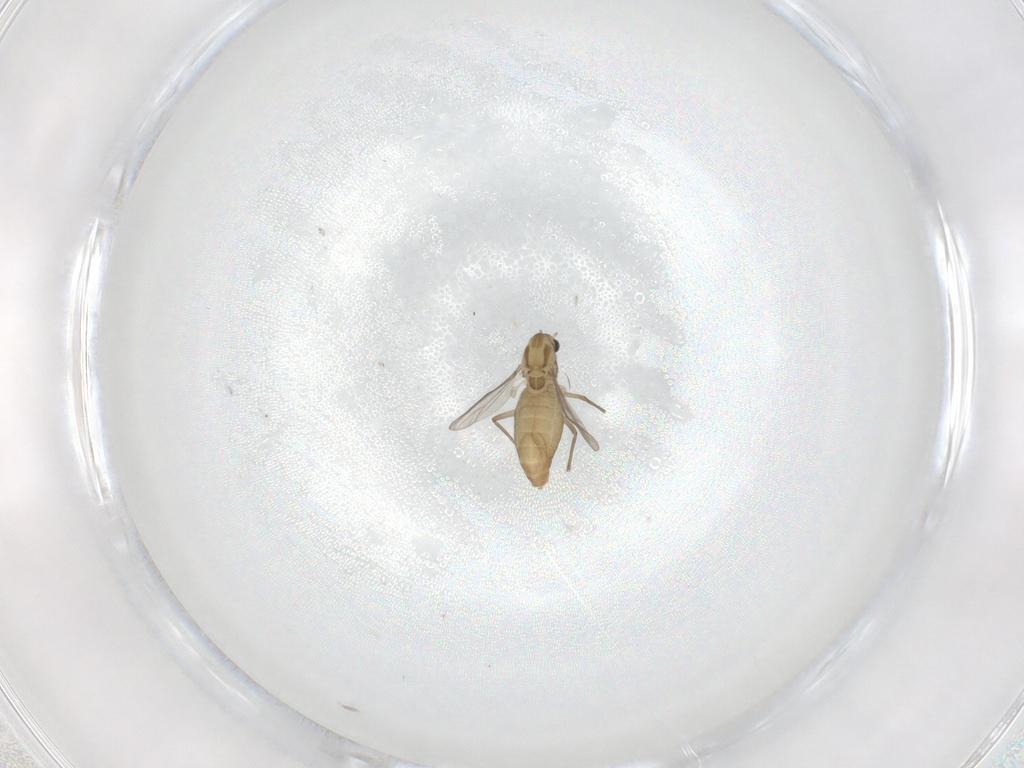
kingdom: Animalia
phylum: Arthropoda
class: Insecta
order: Diptera
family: Chironomidae
